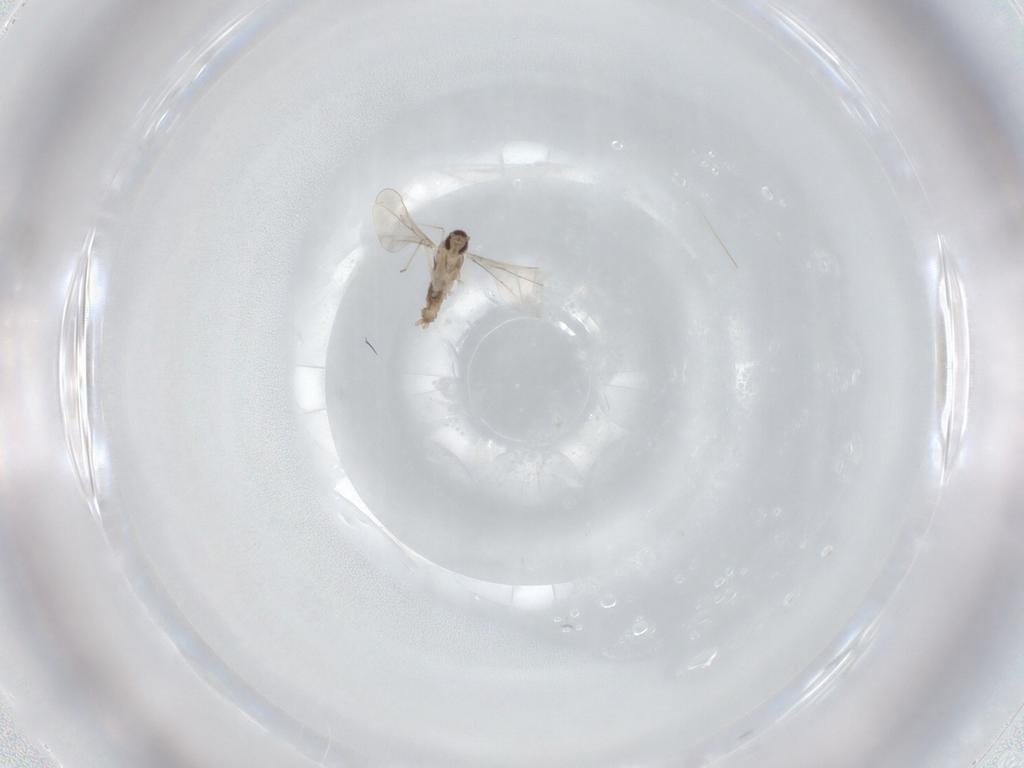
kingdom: Animalia
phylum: Arthropoda
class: Insecta
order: Diptera
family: Cecidomyiidae
